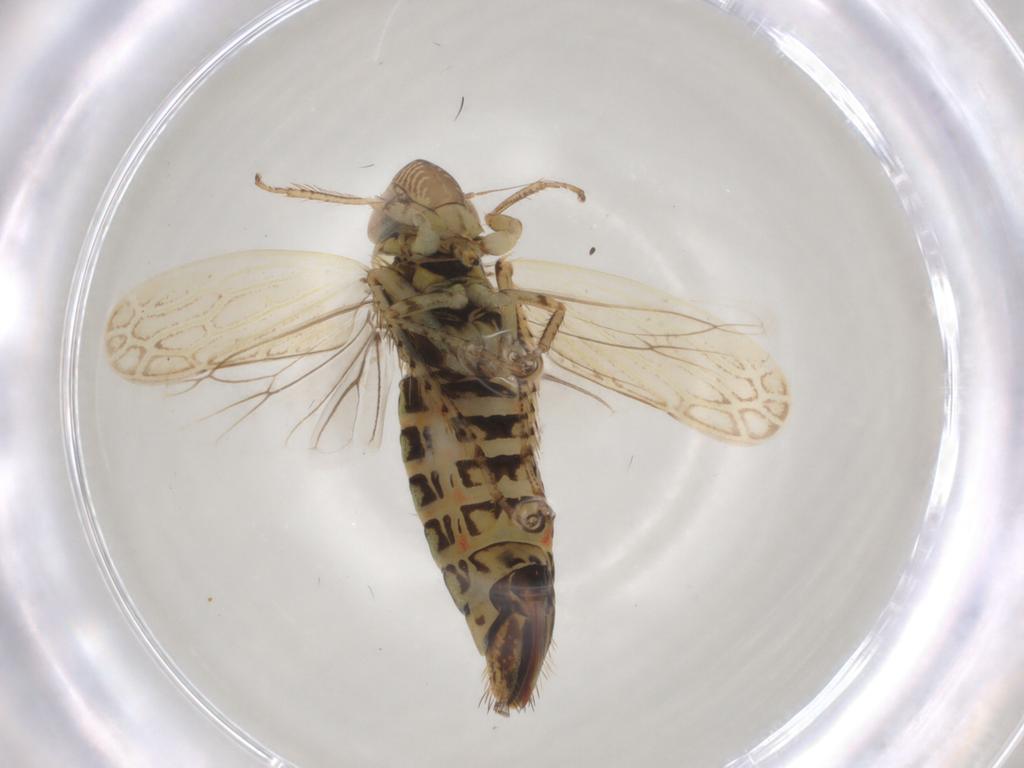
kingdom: Animalia
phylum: Arthropoda
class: Insecta
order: Hemiptera
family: Cicadellidae
